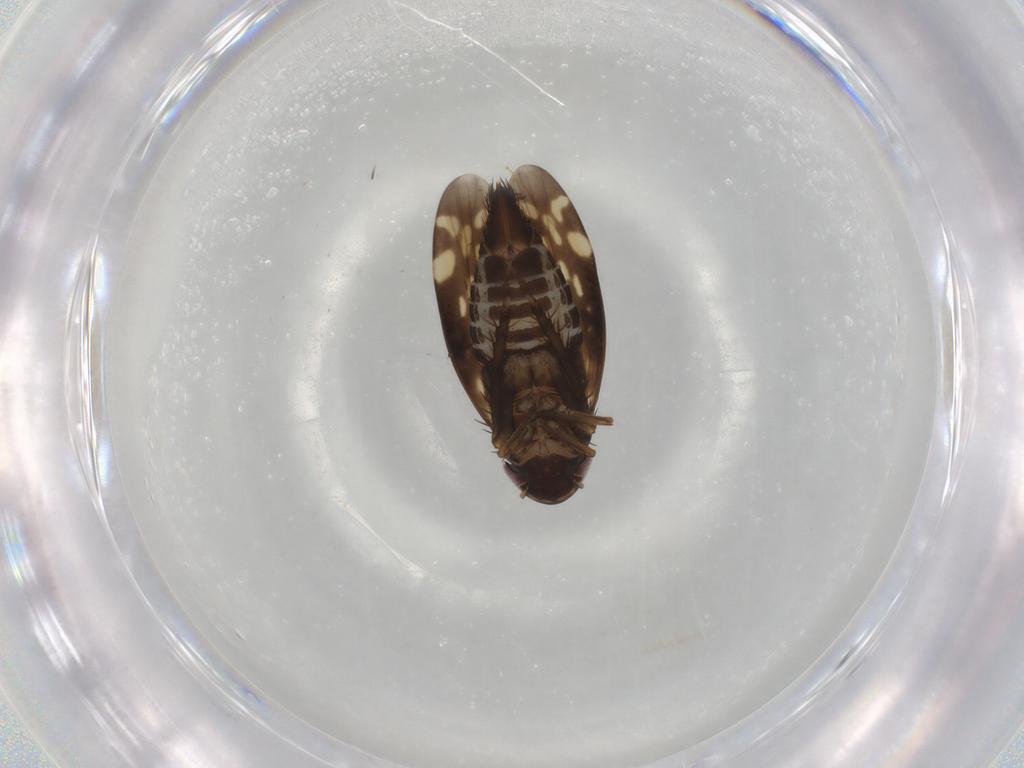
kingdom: Animalia
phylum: Arthropoda
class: Insecta
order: Hemiptera
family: Cicadellidae
